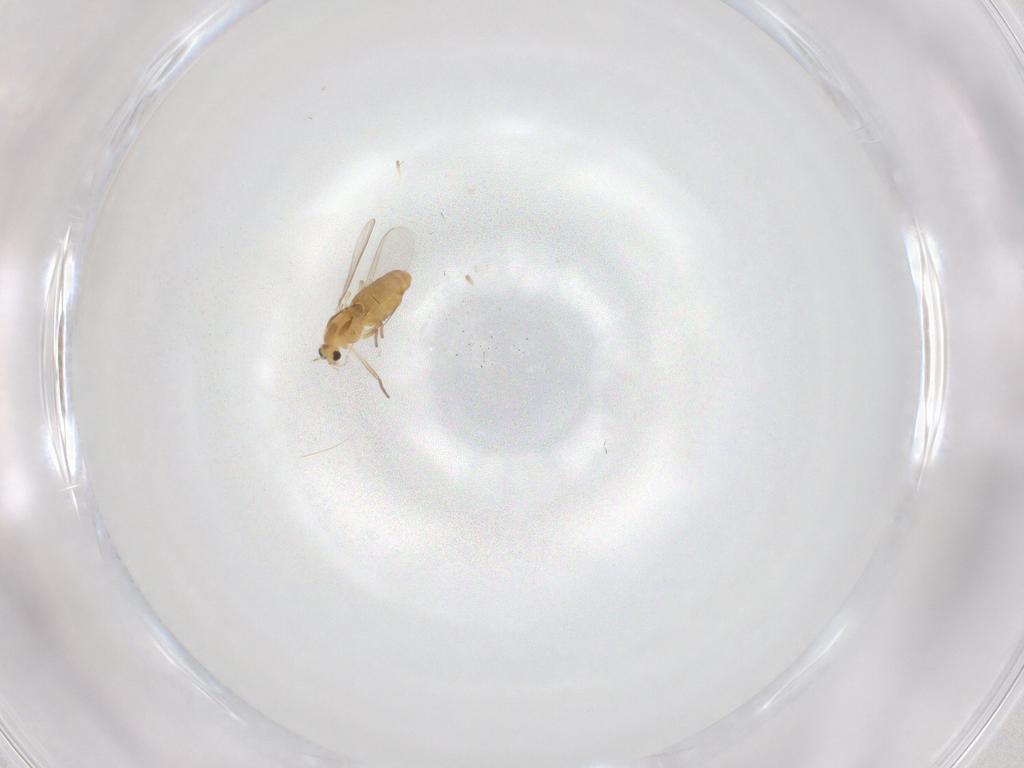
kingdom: Animalia
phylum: Arthropoda
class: Insecta
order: Diptera
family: Chironomidae
